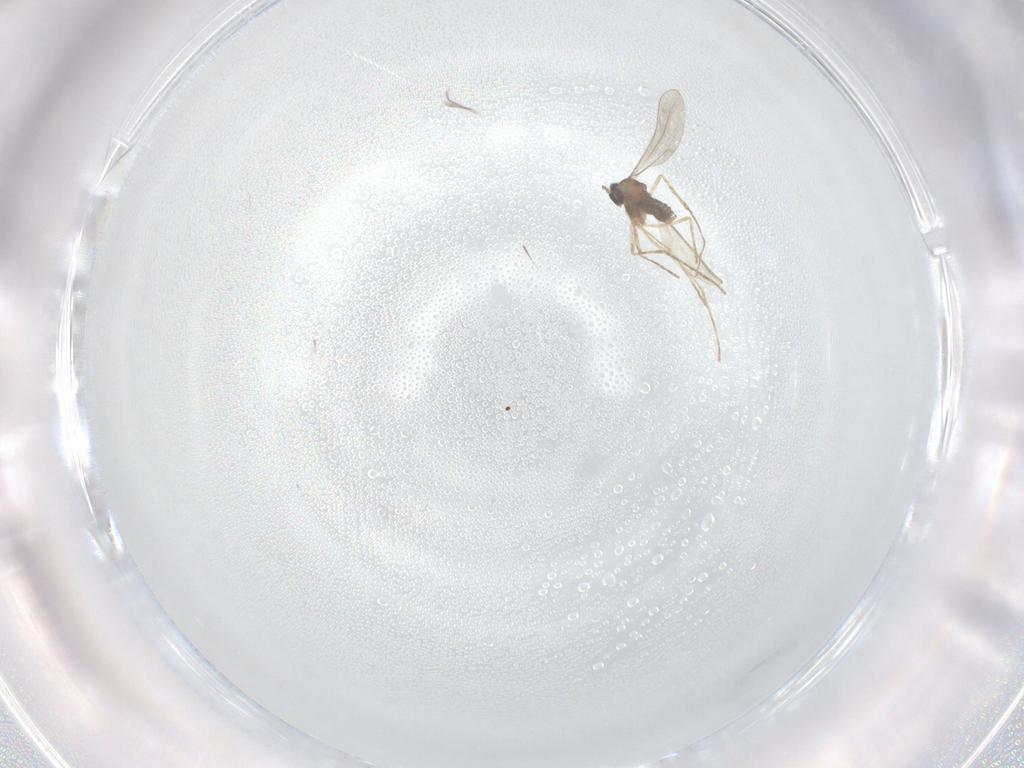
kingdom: Animalia
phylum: Arthropoda
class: Insecta
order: Diptera
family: Cecidomyiidae
